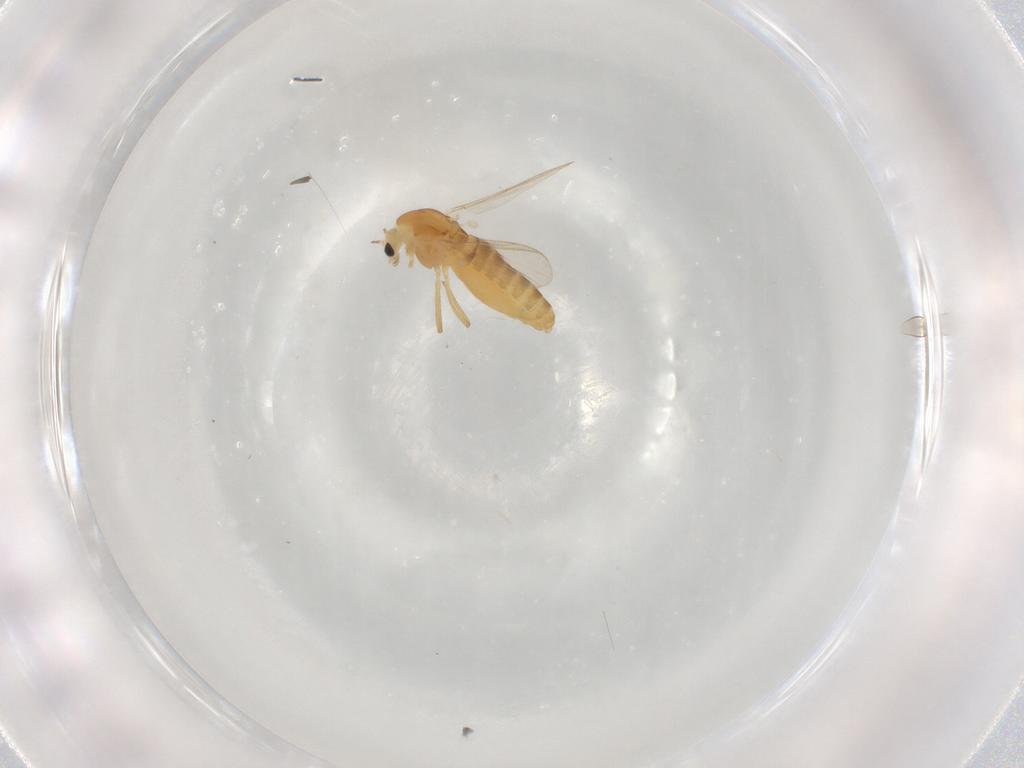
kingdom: Animalia
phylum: Arthropoda
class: Insecta
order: Diptera
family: Chironomidae
